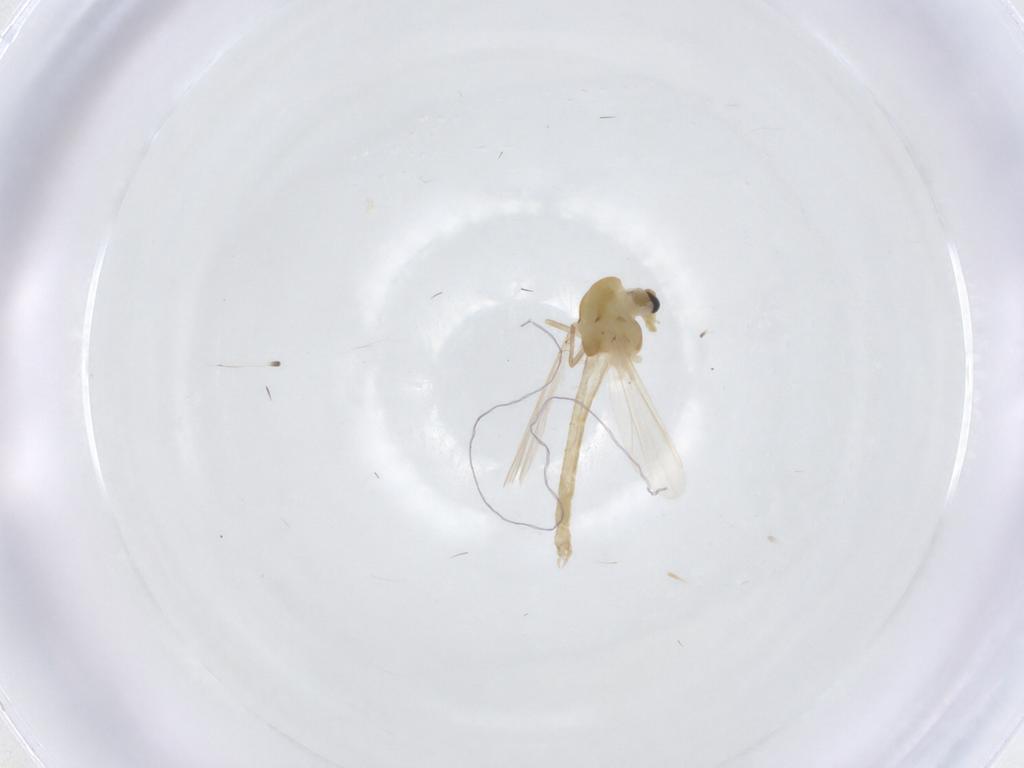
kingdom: Animalia
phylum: Arthropoda
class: Insecta
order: Diptera
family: Chironomidae
